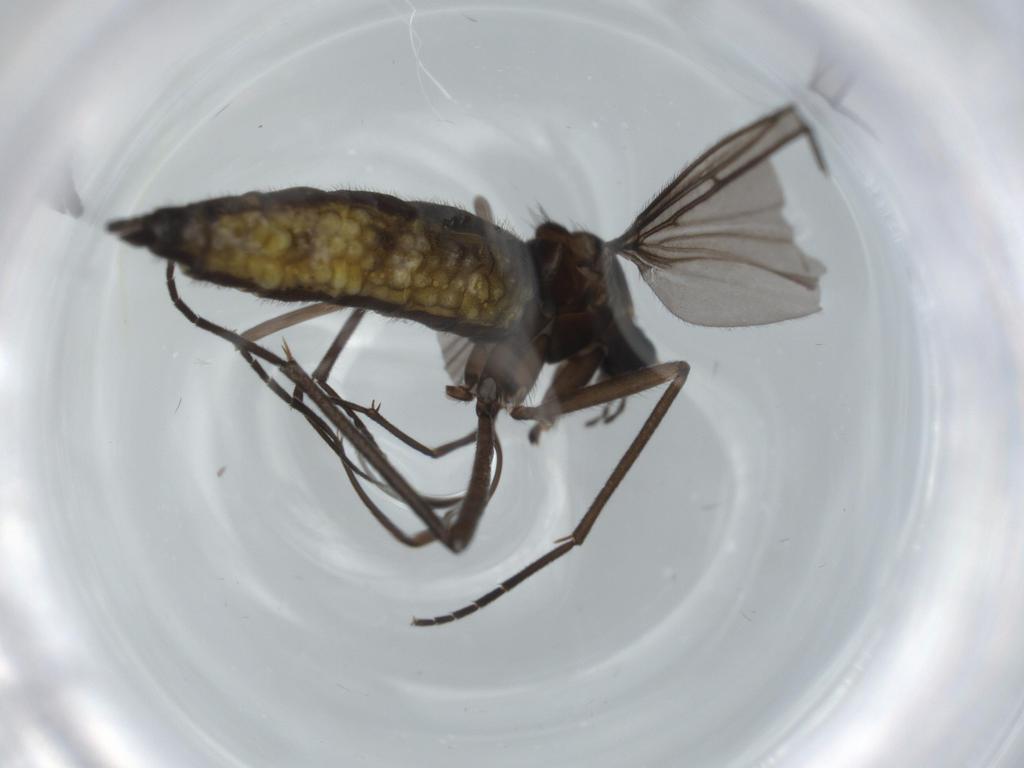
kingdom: Animalia
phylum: Arthropoda
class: Insecta
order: Diptera
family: Sciaridae
